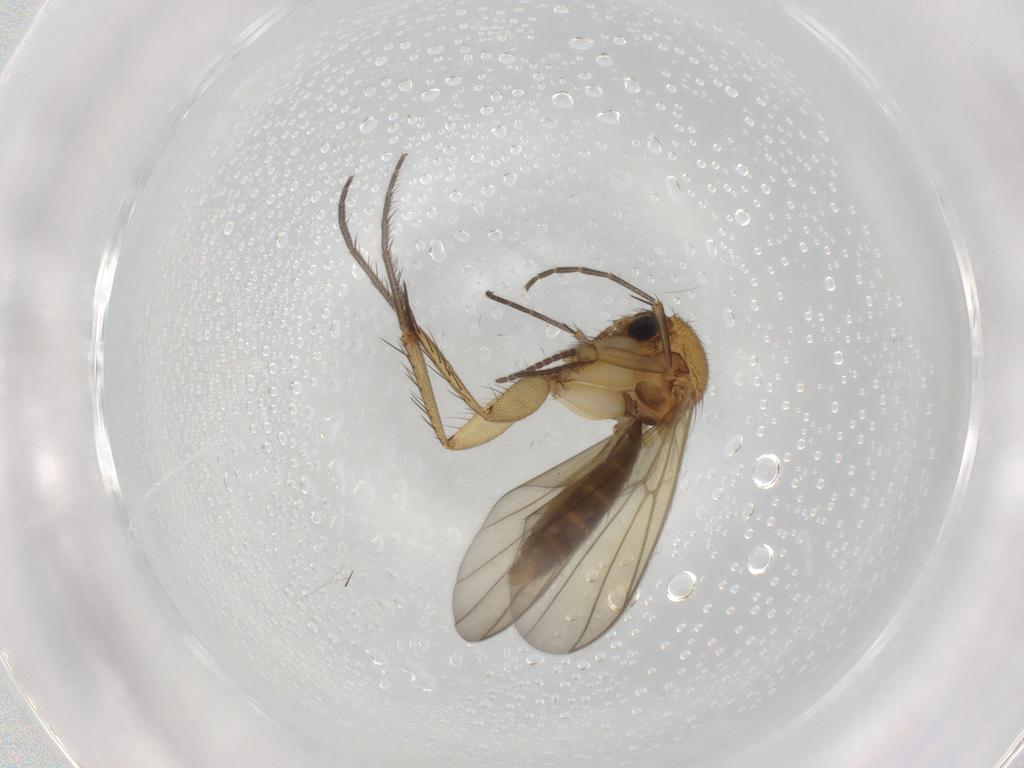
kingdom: Animalia
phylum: Arthropoda
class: Insecta
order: Diptera
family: Mycetophilidae
